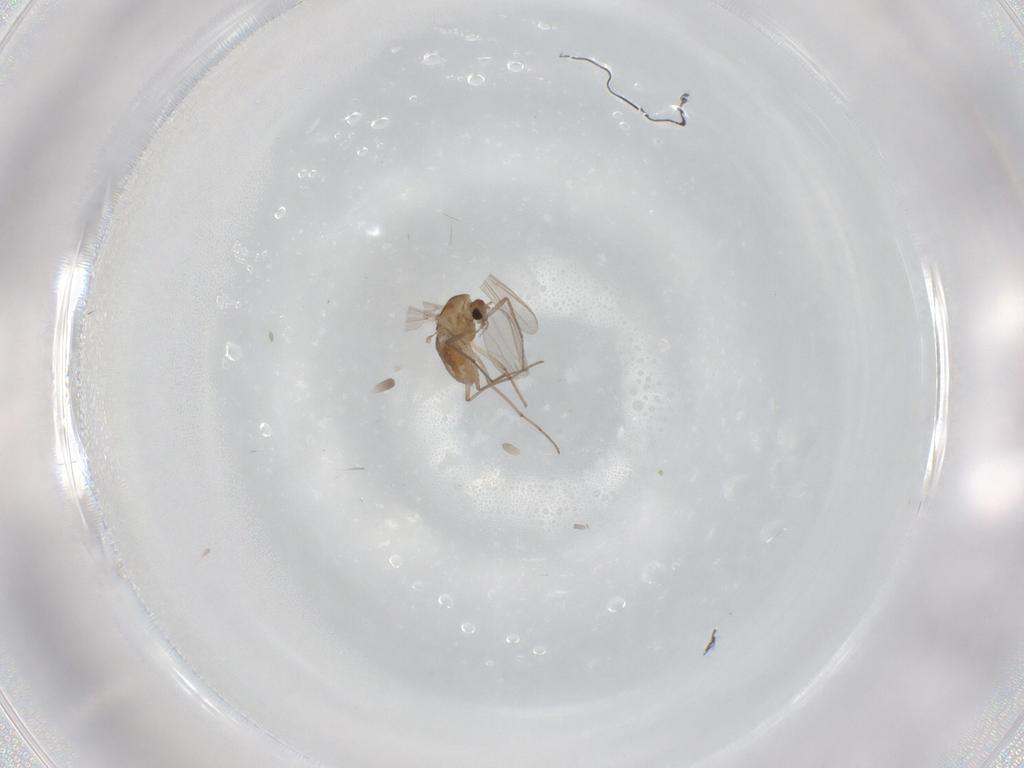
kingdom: Animalia
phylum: Arthropoda
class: Insecta
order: Diptera
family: Chironomidae
